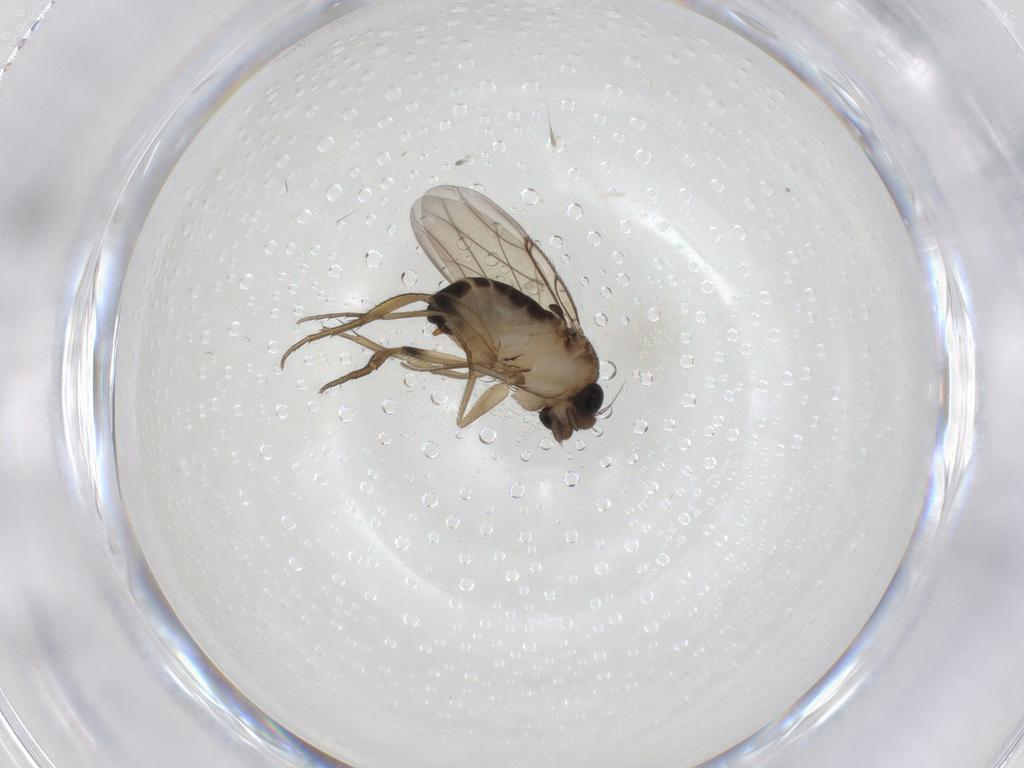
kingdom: Animalia
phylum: Arthropoda
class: Insecta
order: Diptera
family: Phoridae
